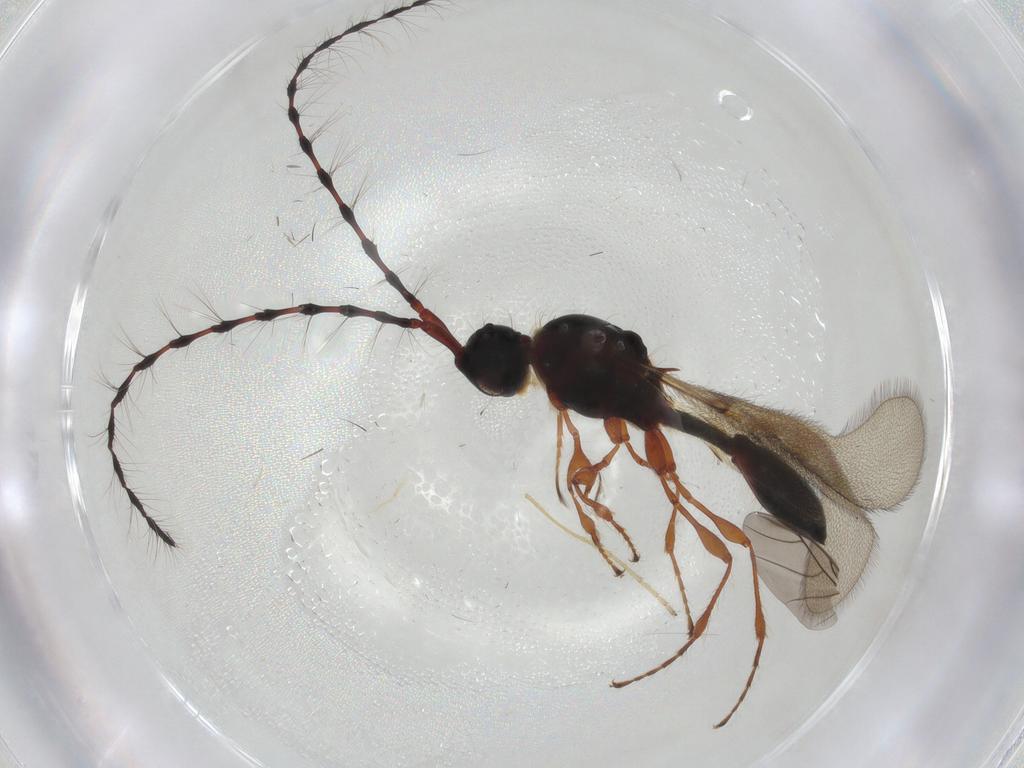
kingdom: Animalia
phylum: Arthropoda
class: Insecta
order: Hymenoptera
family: Diapriidae
